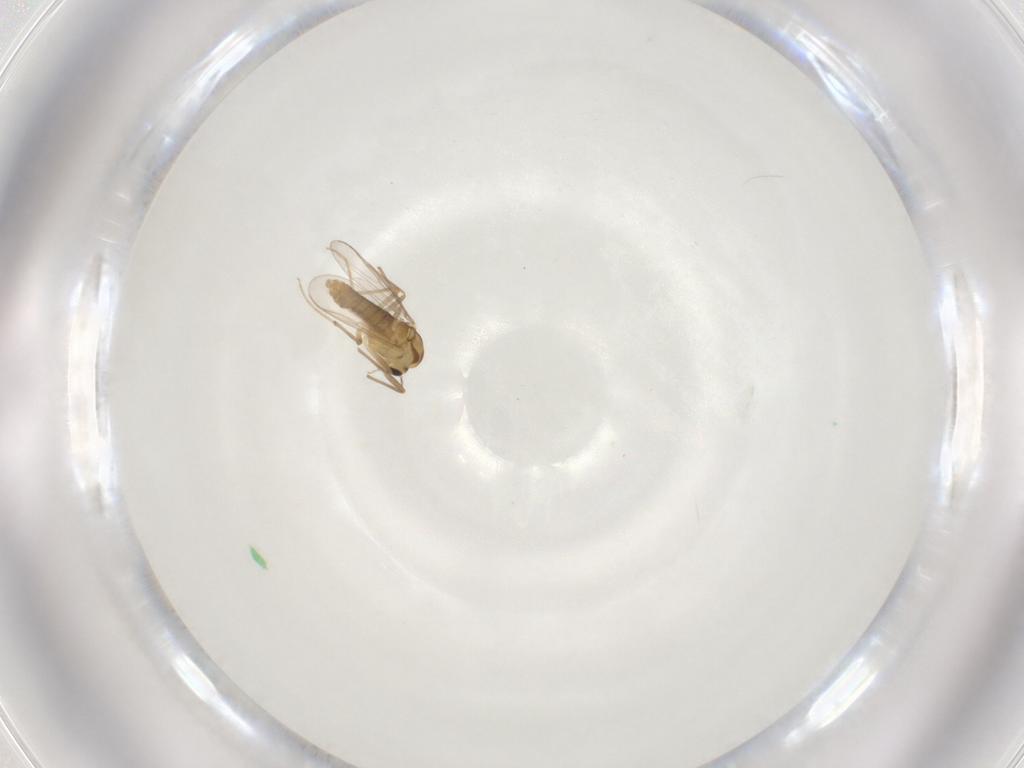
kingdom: Animalia
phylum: Arthropoda
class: Insecta
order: Diptera
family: Chironomidae
